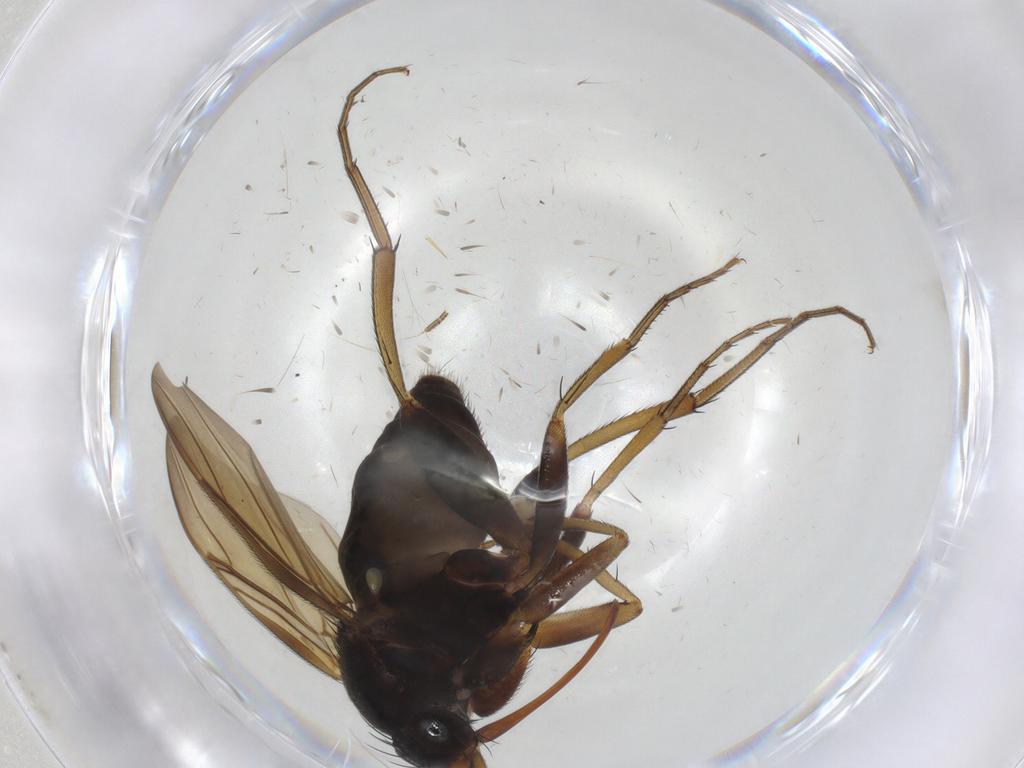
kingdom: Animalia
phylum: Arthropoda
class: Insecta
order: Diptera
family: Phoridae
